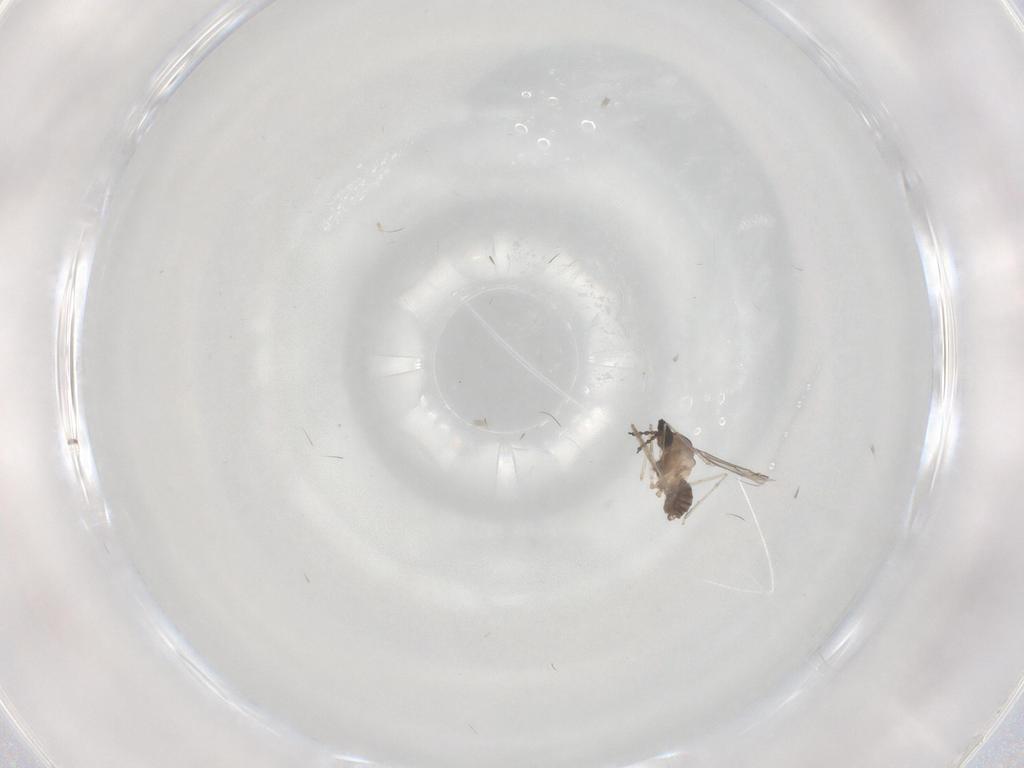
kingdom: Animalia
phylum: Arthropoda
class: Insecta
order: Diptera
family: Cecidomyiidae
